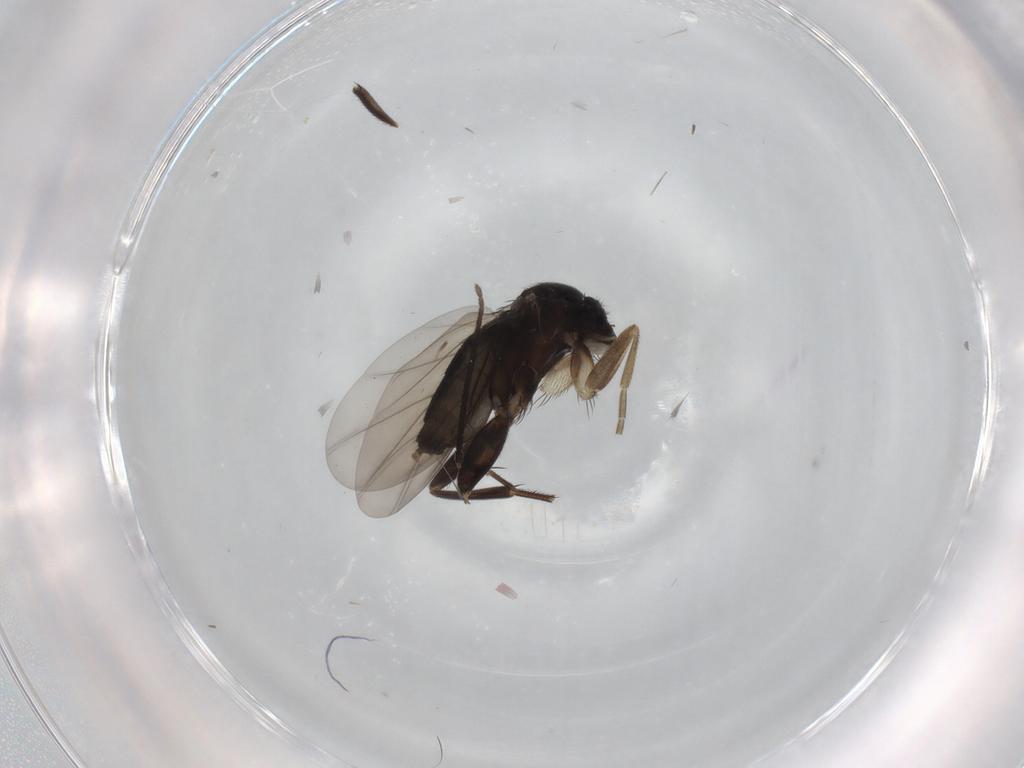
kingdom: Animalia
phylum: Arthropoda
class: Insecta
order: Diptera
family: Phoridae
